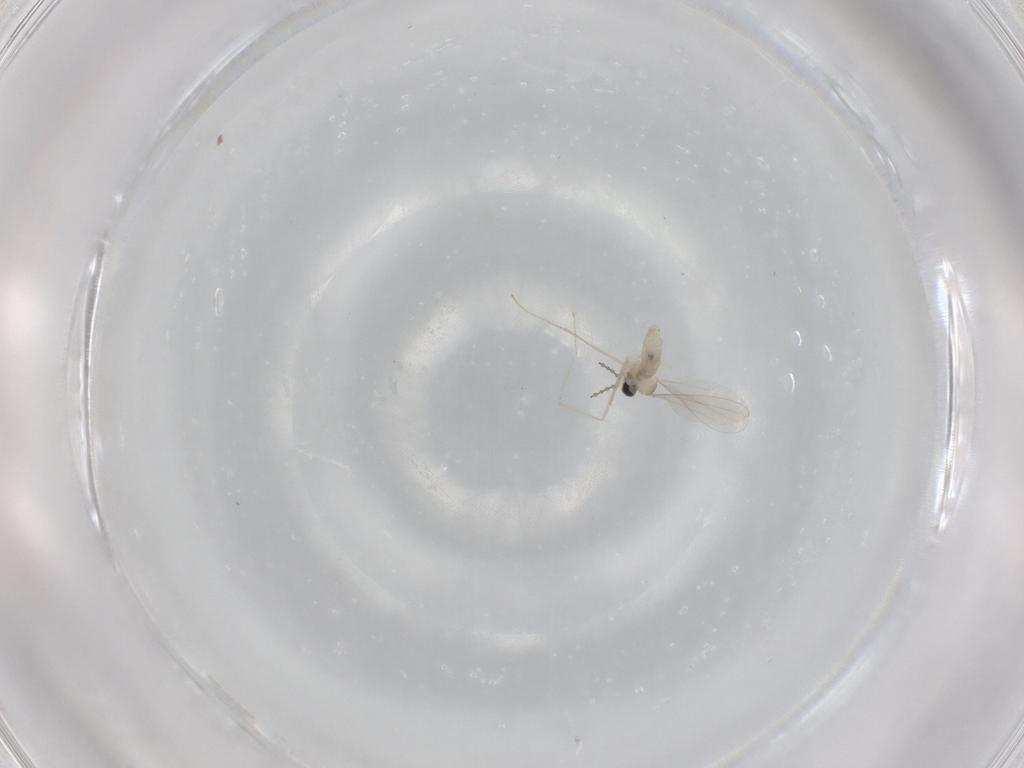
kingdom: Animalia
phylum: Arthropoda
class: Insecta
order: Diptera
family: Cecidomyiidae
